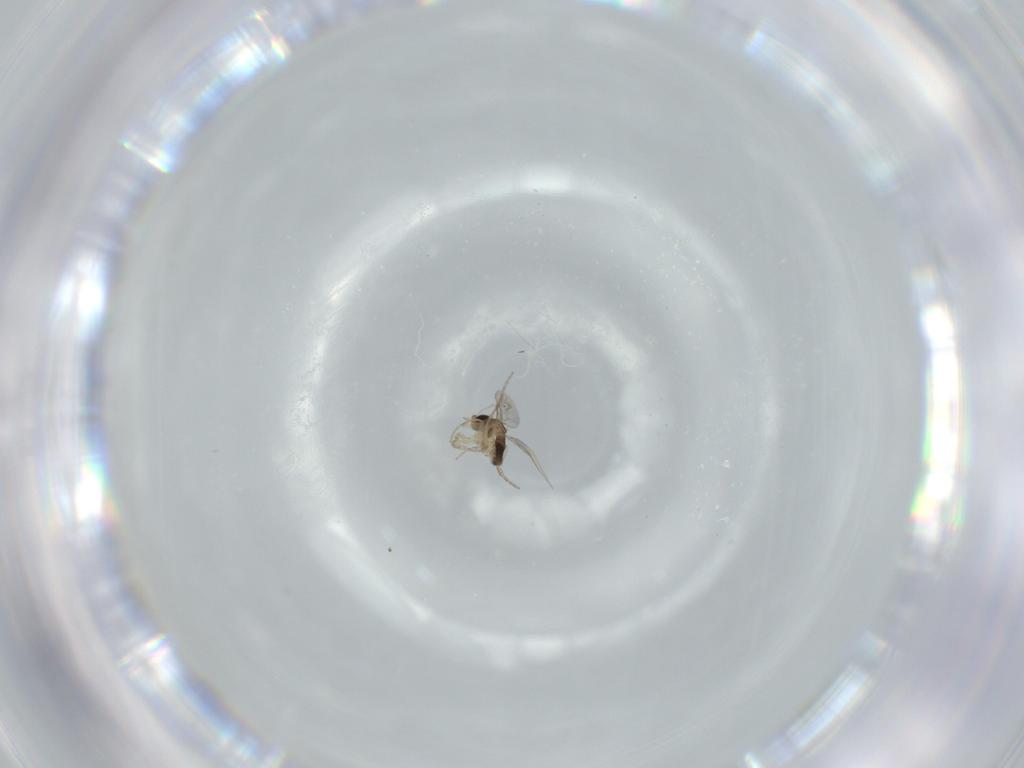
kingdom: Animalia
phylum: Arthropoda
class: Insecta
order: Diptera
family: Phoridae
